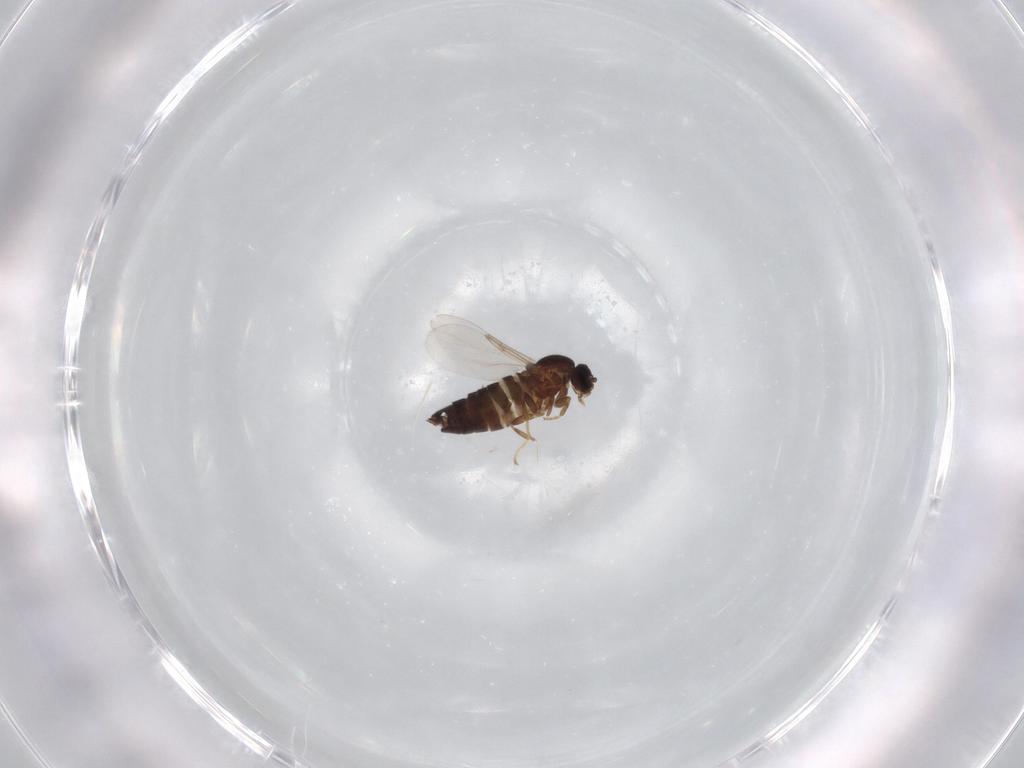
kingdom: Animalia
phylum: Arthropoda
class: Insecta
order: Diptera
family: Scatopsidae
